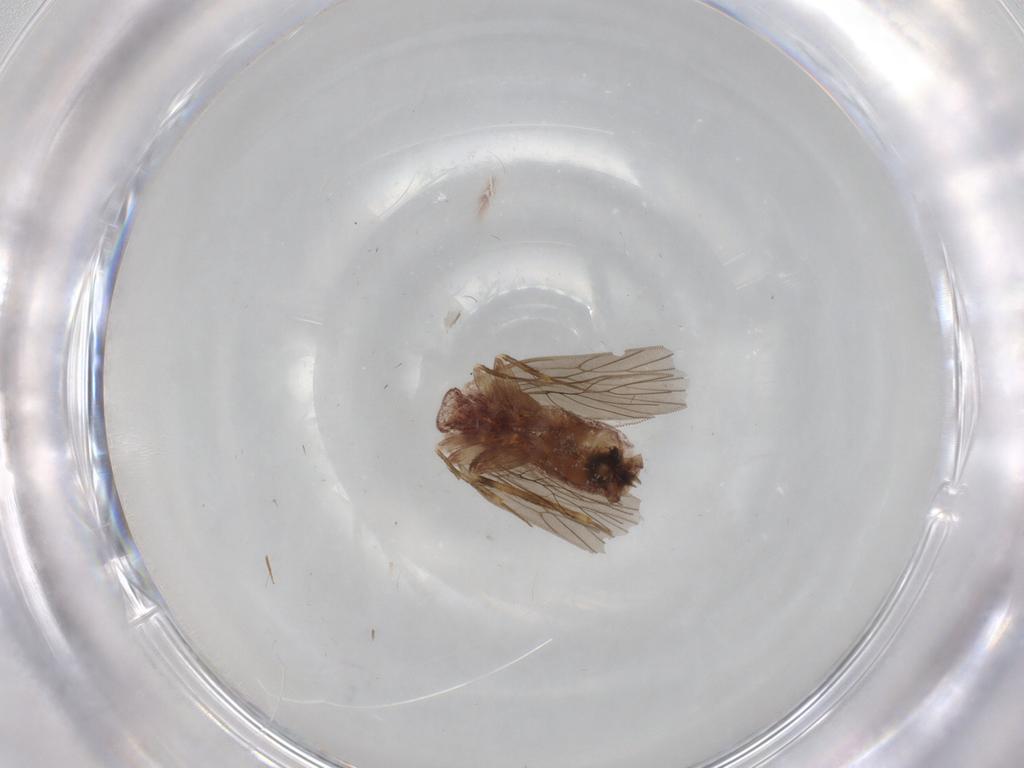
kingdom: Animalia
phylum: Arthropoda
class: Insecta
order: Psocodea
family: Lepidopsocidae
